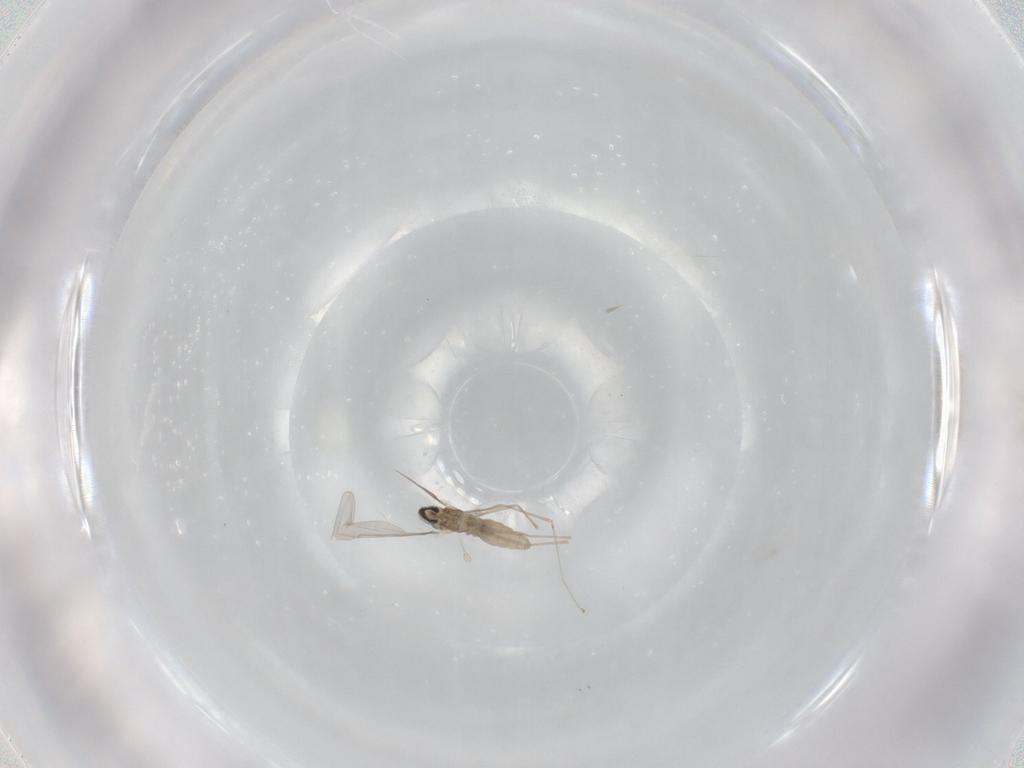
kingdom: Animalia
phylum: Arthropoda
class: Insecta
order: Diptera
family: Cecidomyiidae
